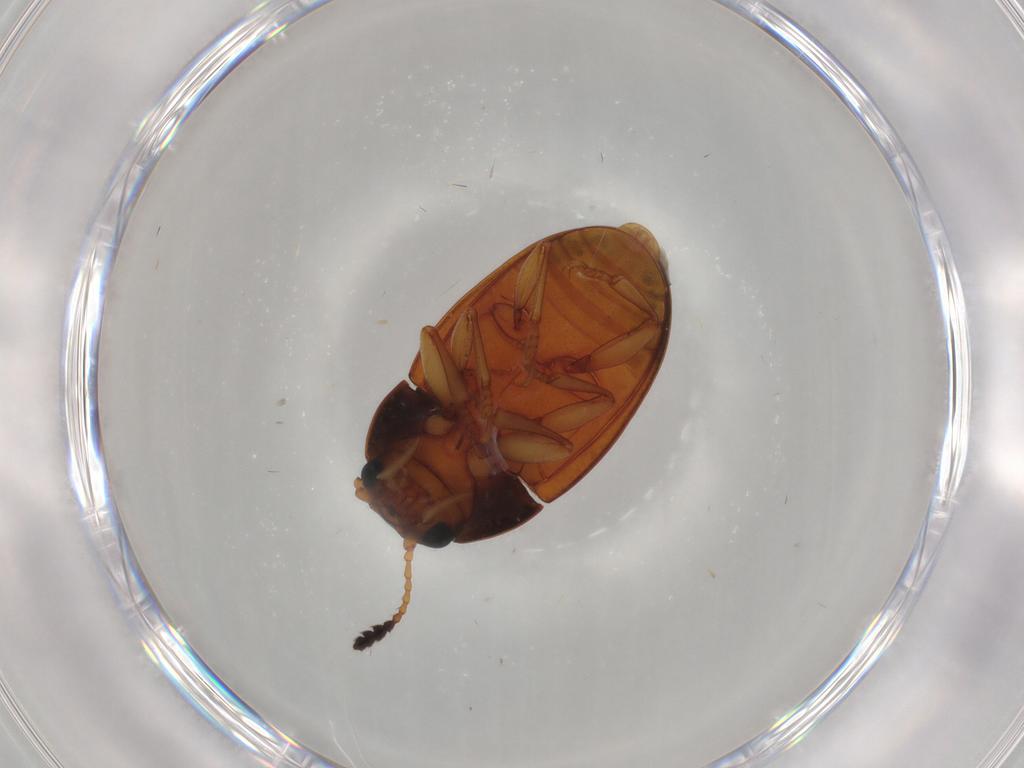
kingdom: Animalia
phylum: Arthropoda
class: Insecta
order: Coleoptera
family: Erotylidae
